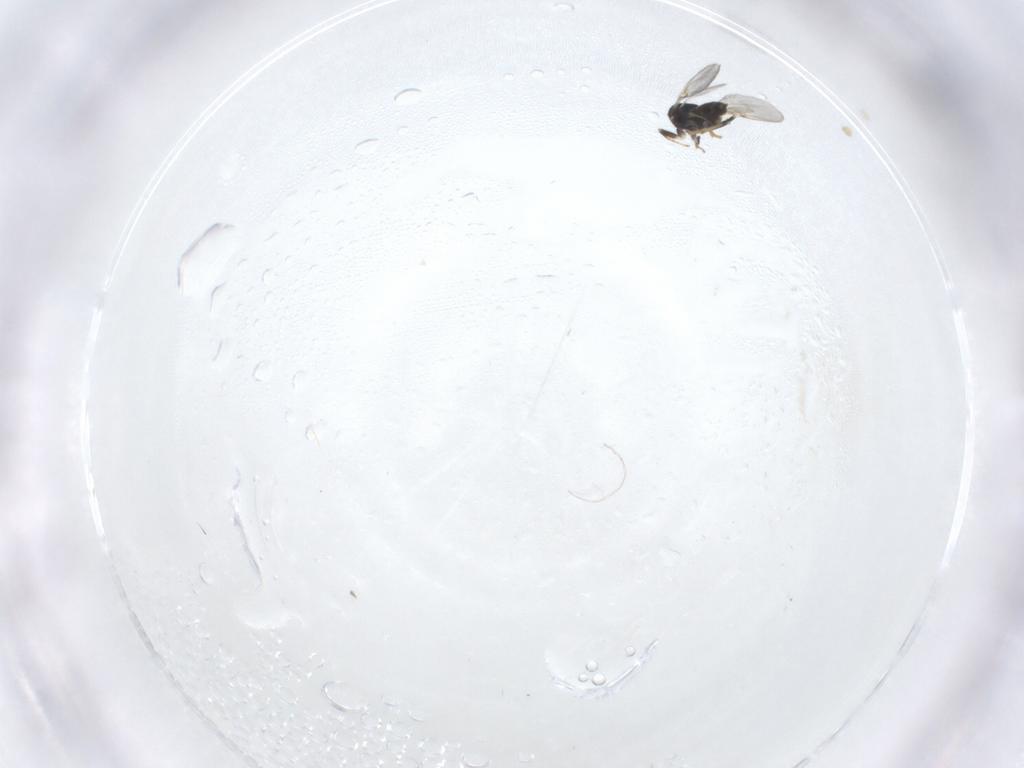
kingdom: Animalia
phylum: Arthropoda
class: Insecta
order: Hymenoptera
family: Encyrtidae
